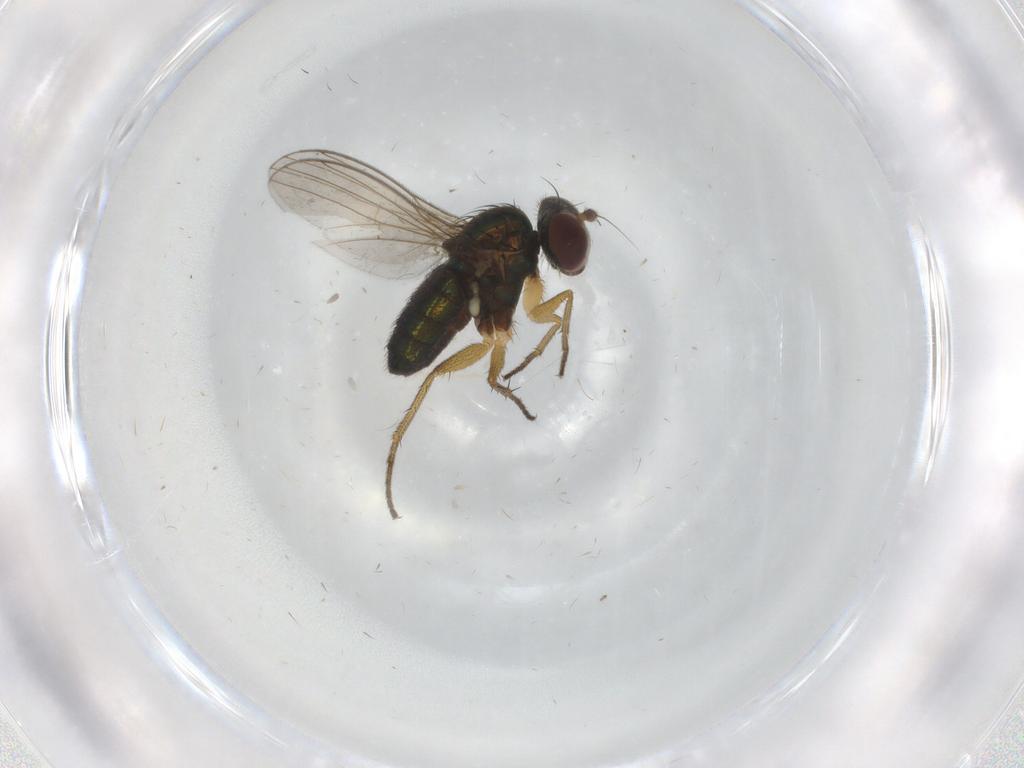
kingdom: Animalia
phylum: Arthropoda
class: Insecta
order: Diptera
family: Dolichopodidae
